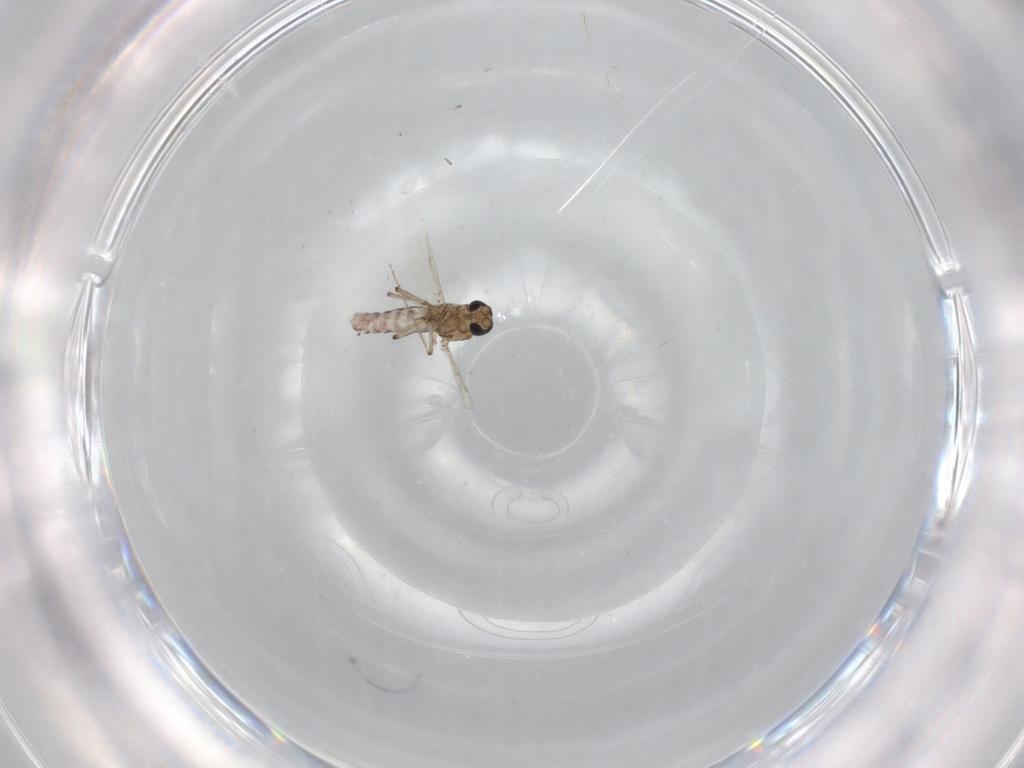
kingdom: Animalia
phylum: Arthropoda
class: Insecta
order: Diptera
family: Ceratopogonidae
